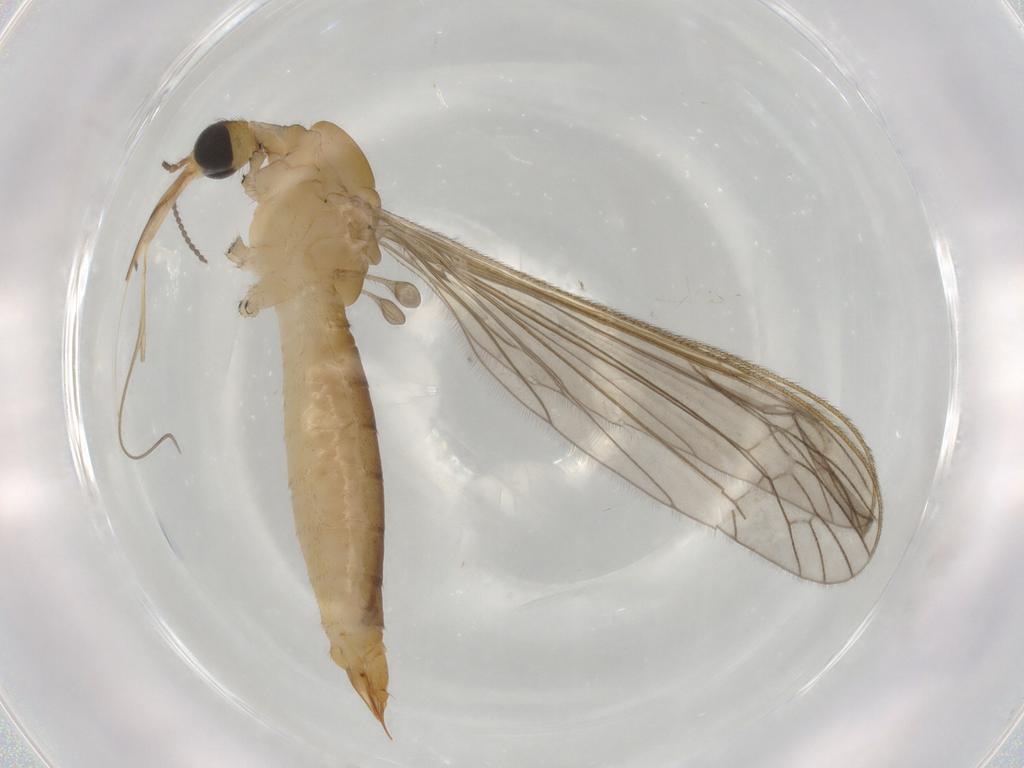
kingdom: Animalia
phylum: Arthropoda
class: Insecta
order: Diptera
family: Limoniidae
